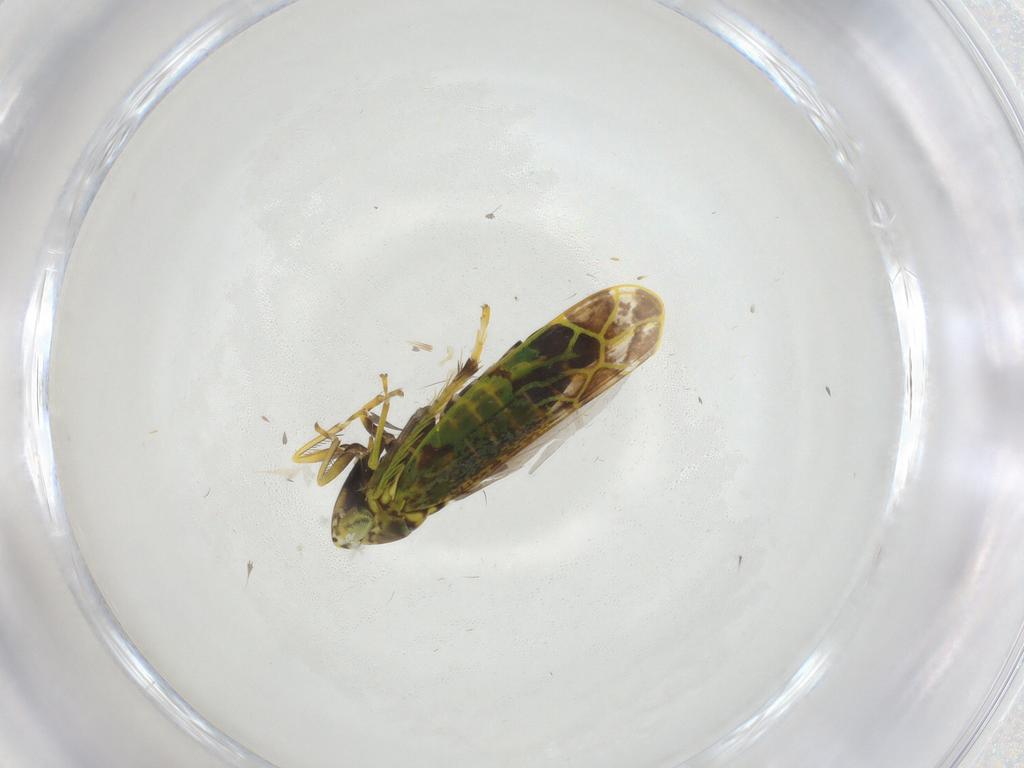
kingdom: Animalia
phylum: Arthropoda
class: Insecta
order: Hemiptera
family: Cicadellidae
